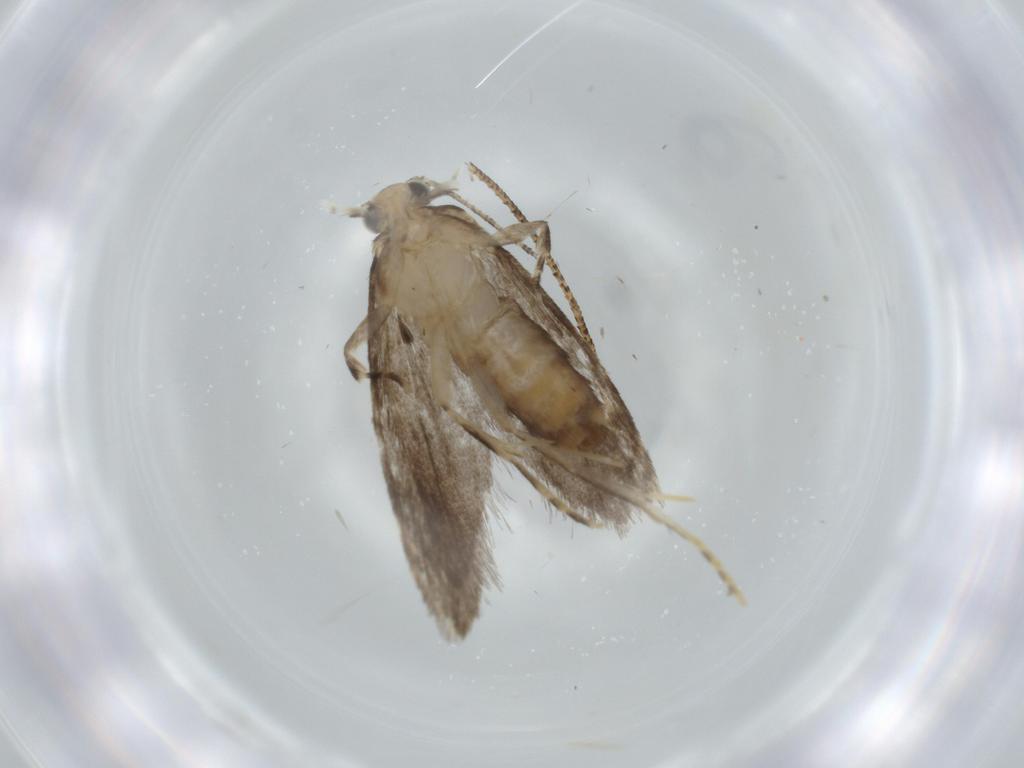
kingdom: Animalia
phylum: Arthropoda
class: Insecta
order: Lepidoptera
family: Tineidae
